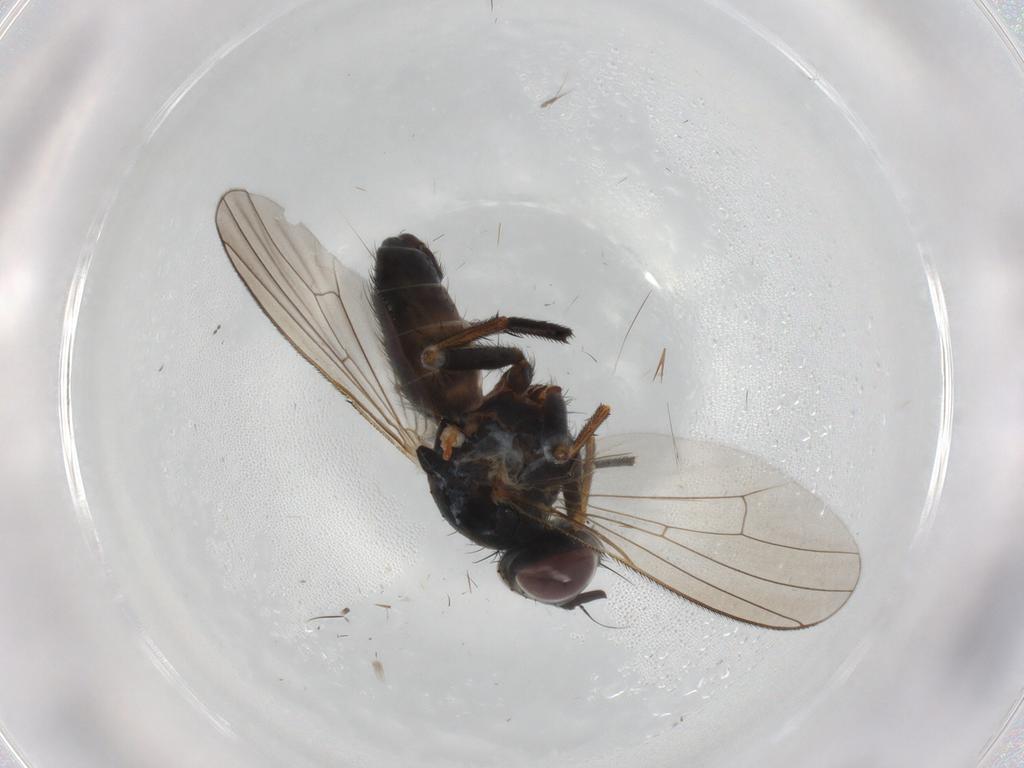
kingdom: Animalia
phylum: Arthropoda
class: Insecta
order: Diptera
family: Muscidae
